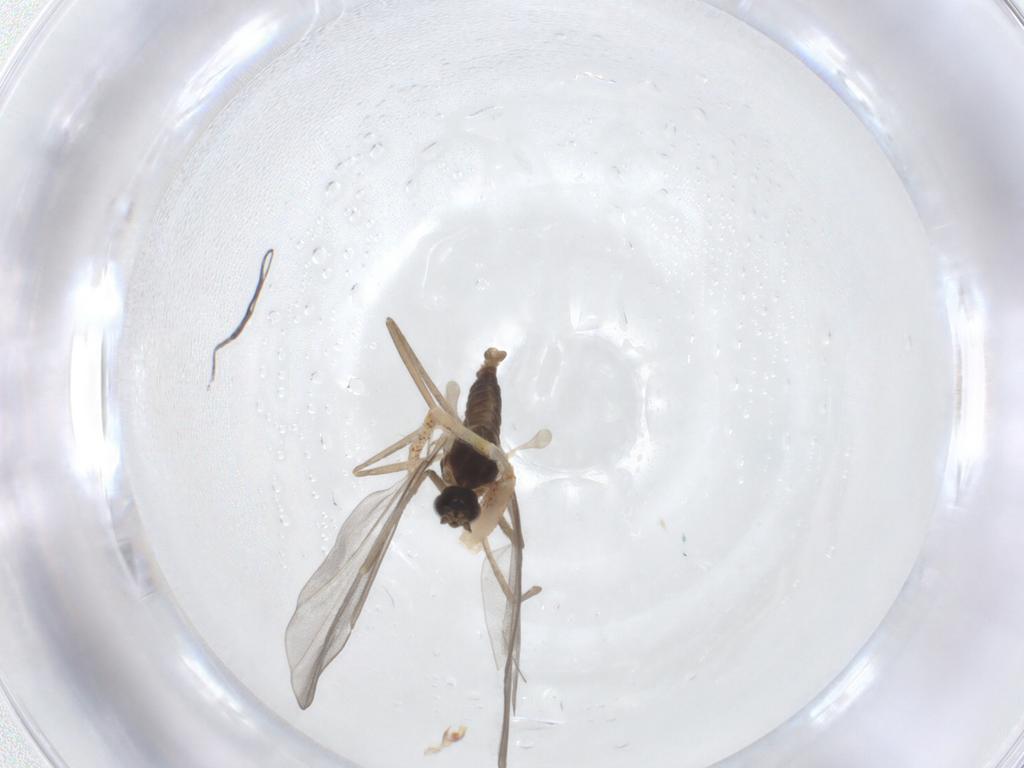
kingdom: Animalia
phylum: Arthropoda
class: Insecta
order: Diptera
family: Cecidomyiidae
